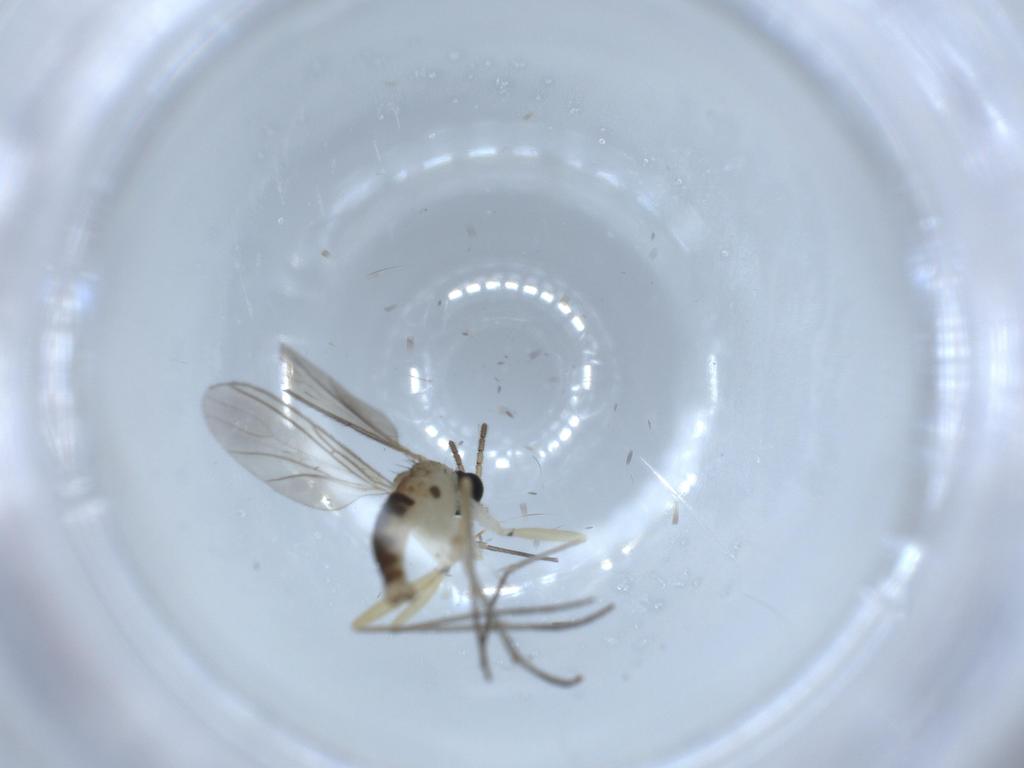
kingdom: Animalia
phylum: Arthropoda
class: Insecta
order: Diptera
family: Sciaridae
